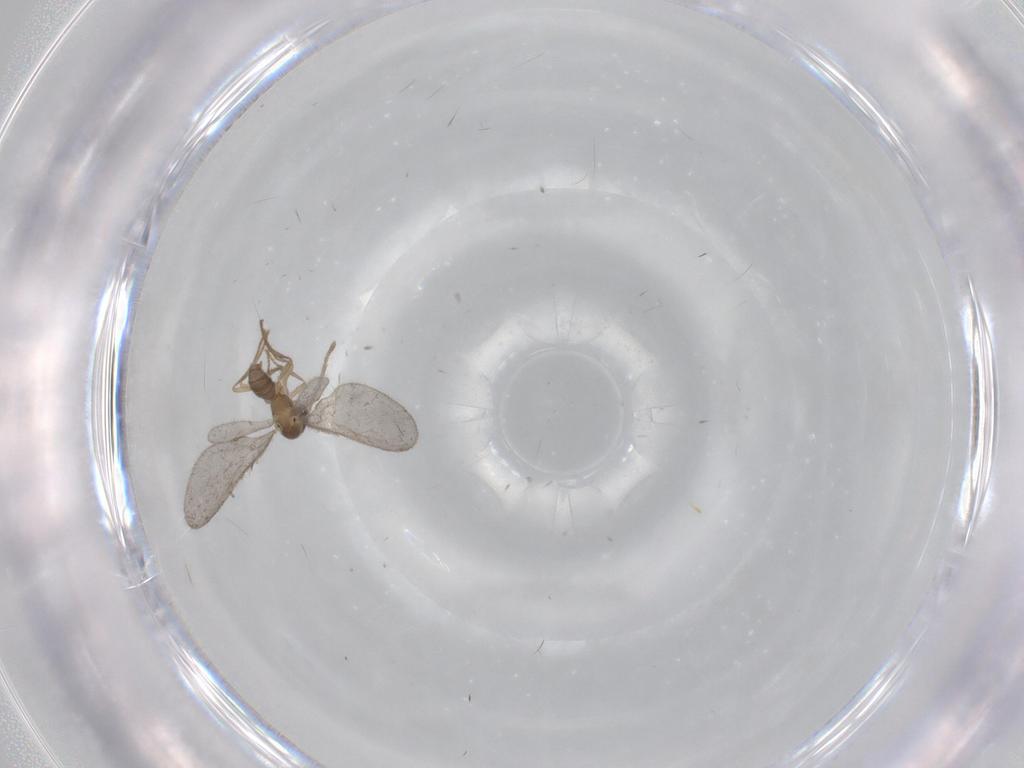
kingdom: Animalia
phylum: Arthropoda
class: Insecta
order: Hymenoptera
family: Formicidae
